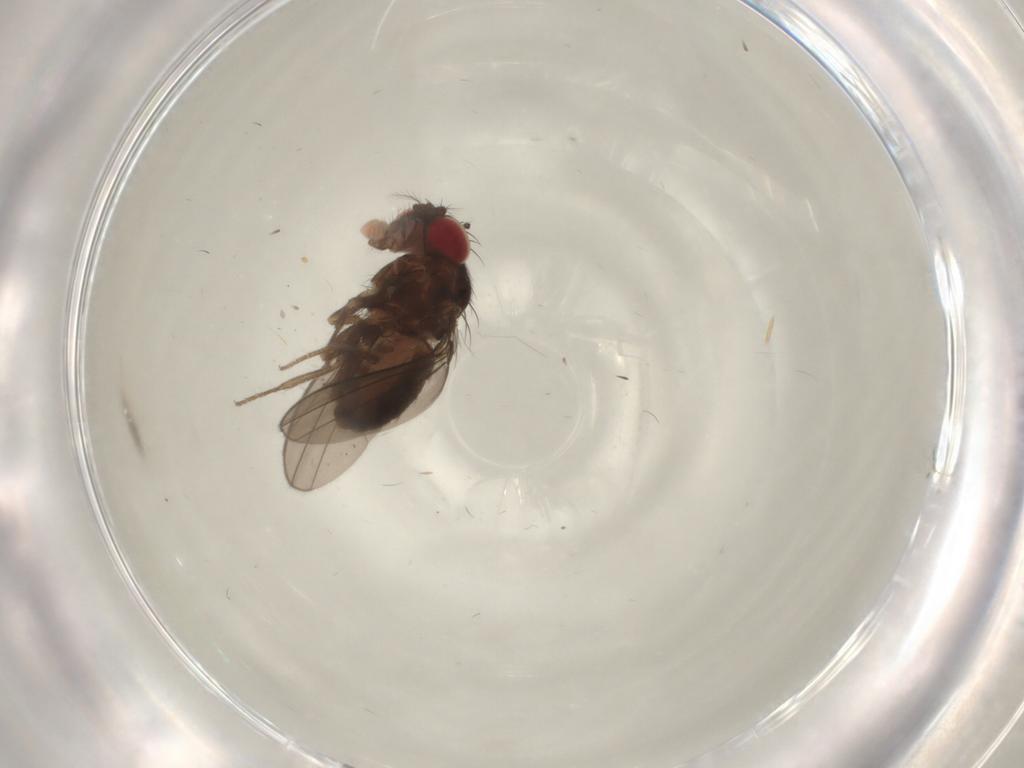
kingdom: Animalia
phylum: Arthropoda
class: Insecta
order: Diptera
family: Drosophilidae
